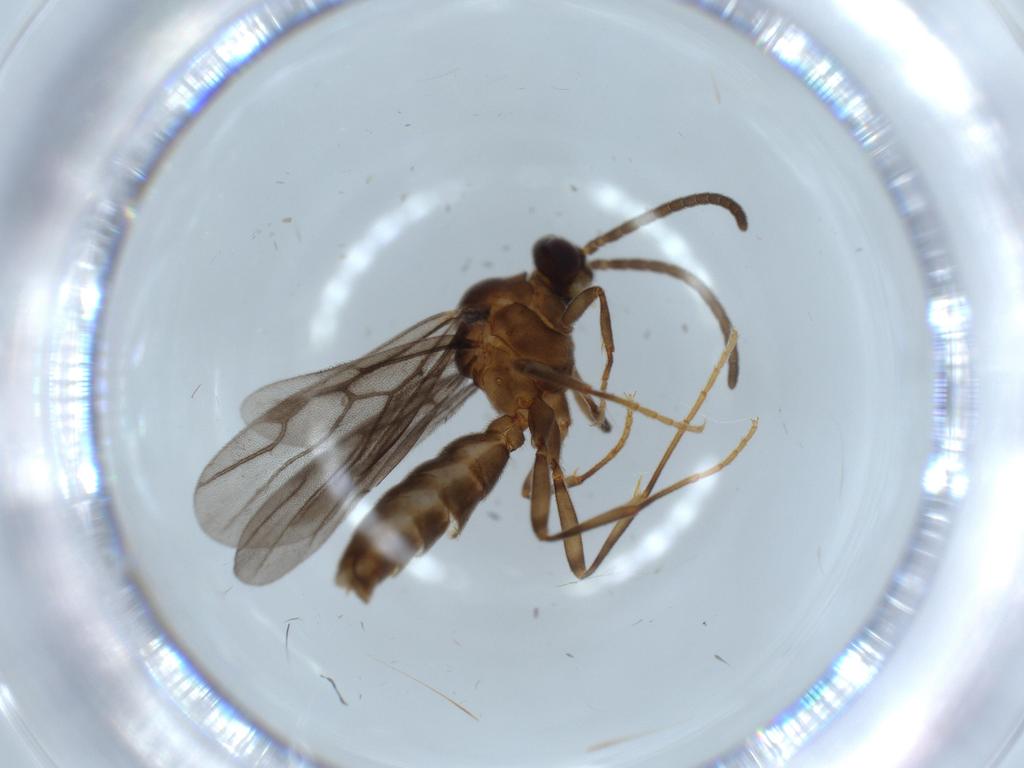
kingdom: Animalia
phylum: Arthropoda
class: Insecta
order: Hymenoptera
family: Formicidae
